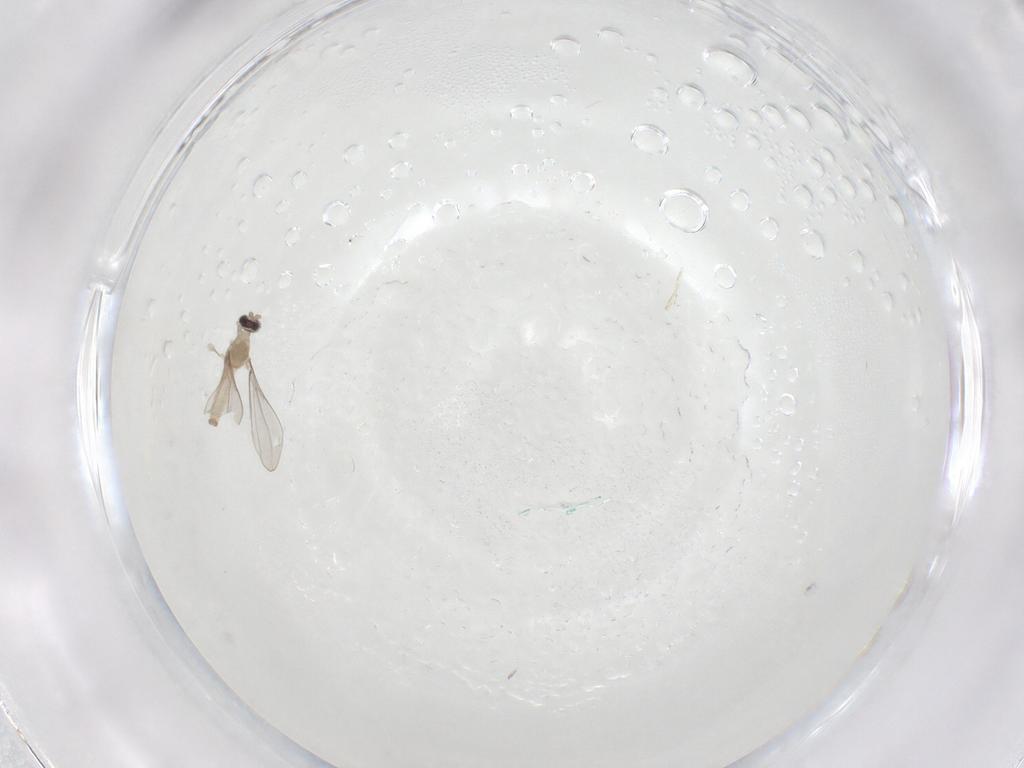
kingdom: Animalia
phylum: Arthropoda
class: Insecta
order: Diptera
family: Cecidomyiidae
